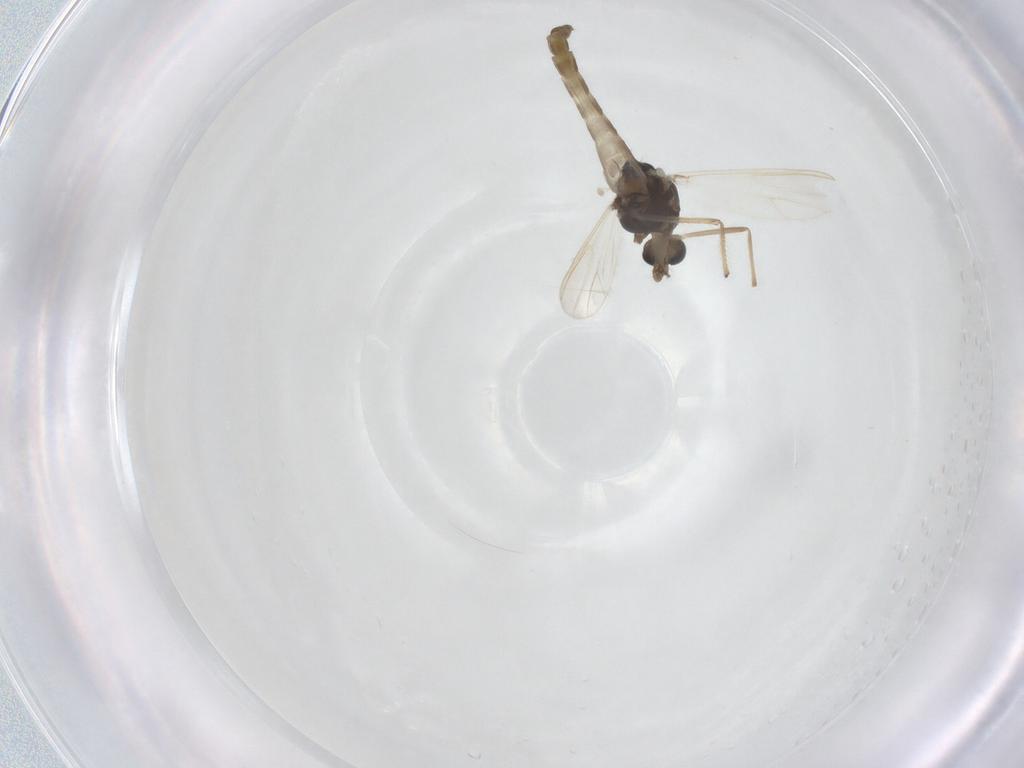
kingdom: Animalia
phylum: Arthropoda
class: Insecta
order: Diptera
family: Chironomidae
